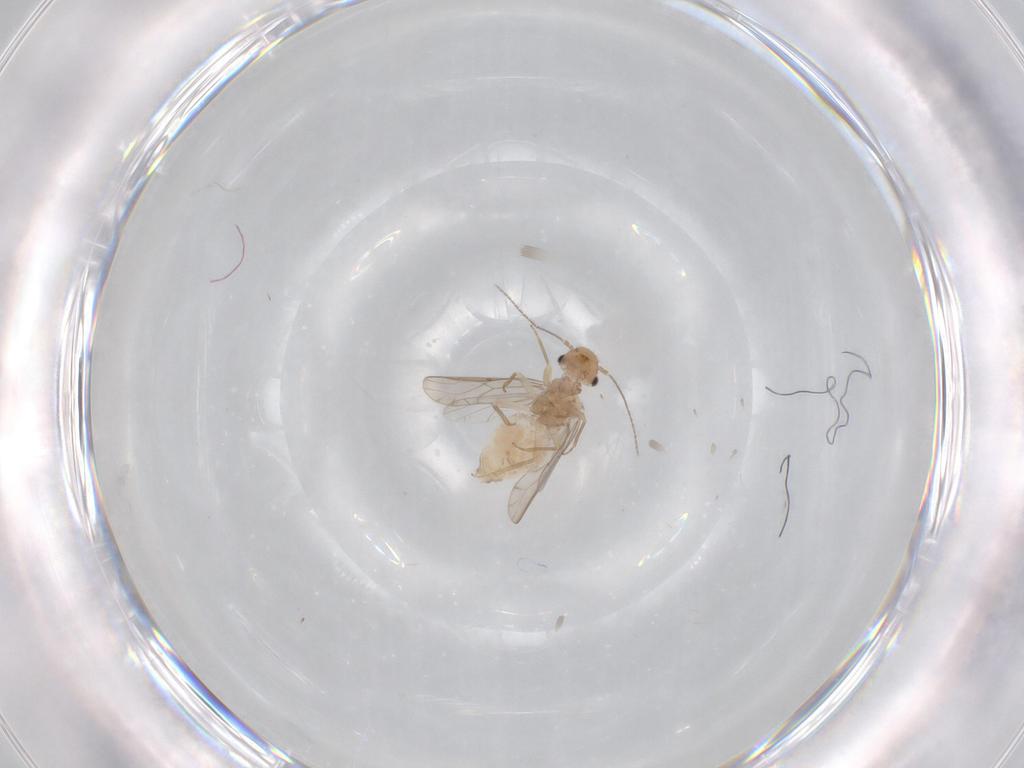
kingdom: Animalia
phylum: Arthropoda
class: Insecta
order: Psocodea
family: Ectopsocidae
